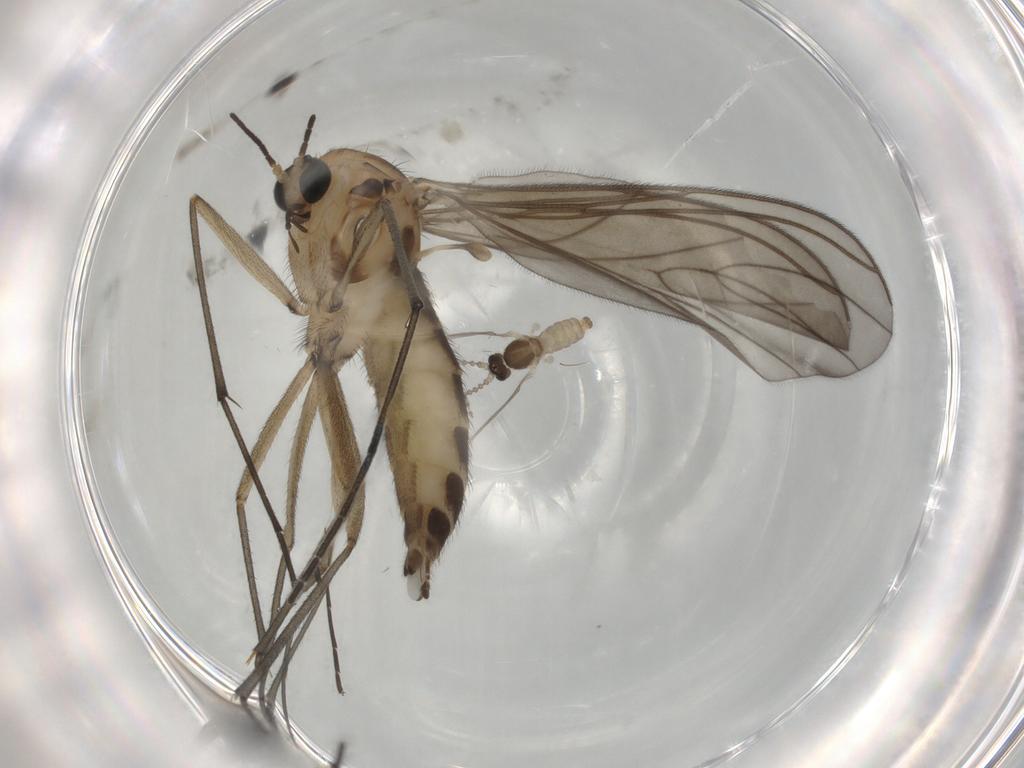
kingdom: Animalia
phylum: Arthropoda
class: Insecta
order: Diptera
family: Sciaridae
